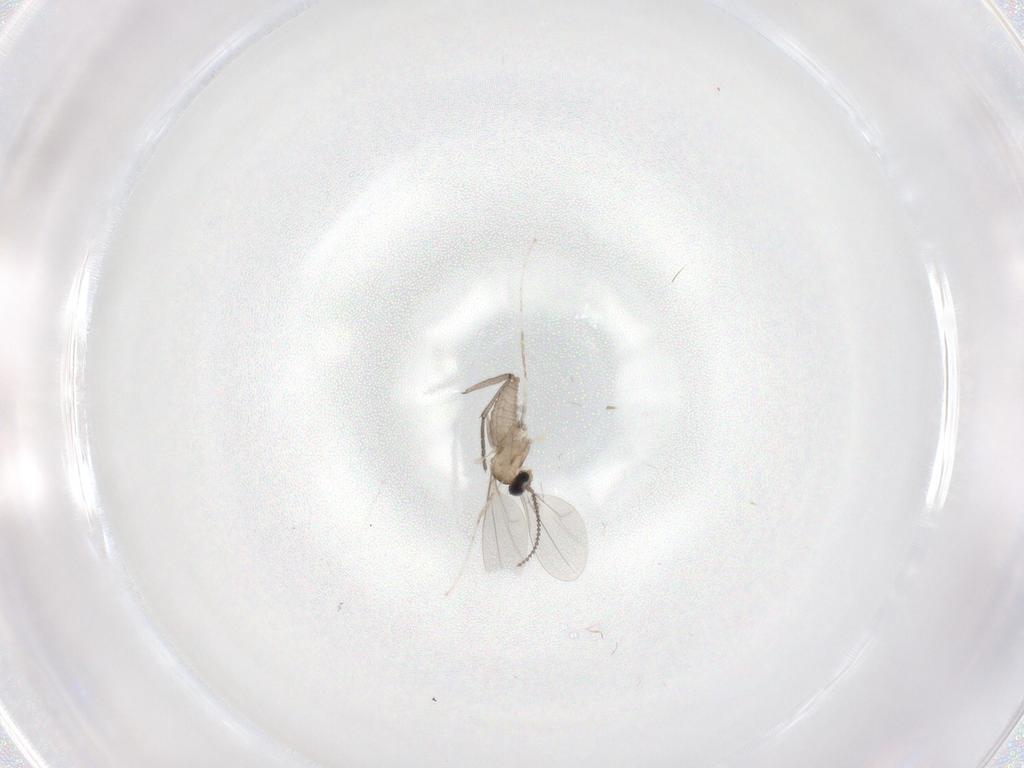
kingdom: Animalia
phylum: Arthropoda
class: Insecta
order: Diptera
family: Cecidomyiidae
